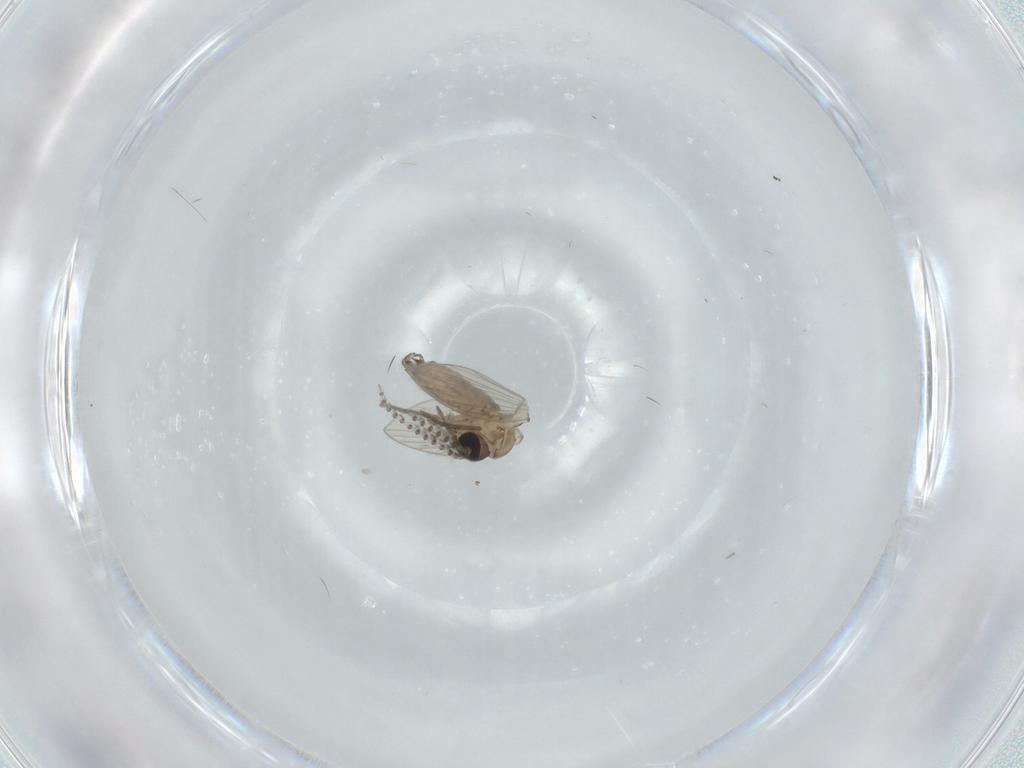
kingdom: Animalia
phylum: Arthropoda
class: Insecta
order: Diptera
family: Psychodidae
